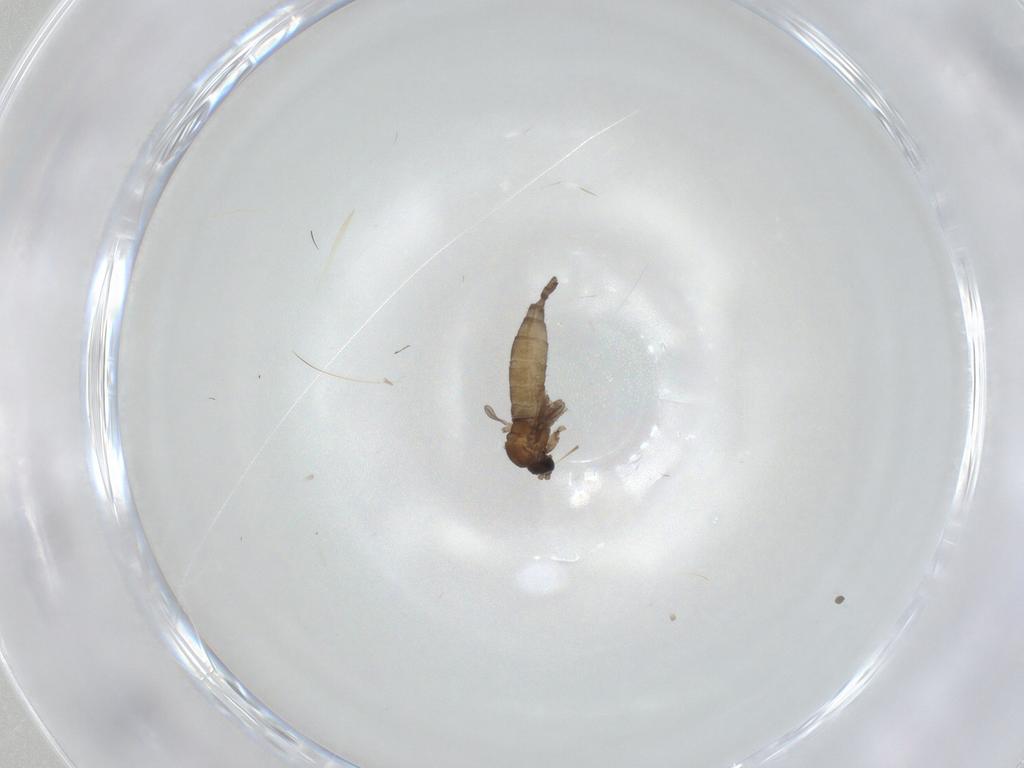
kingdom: Animalia
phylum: Arthropoda
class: Insecta
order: Diptera
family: Sciaridae
